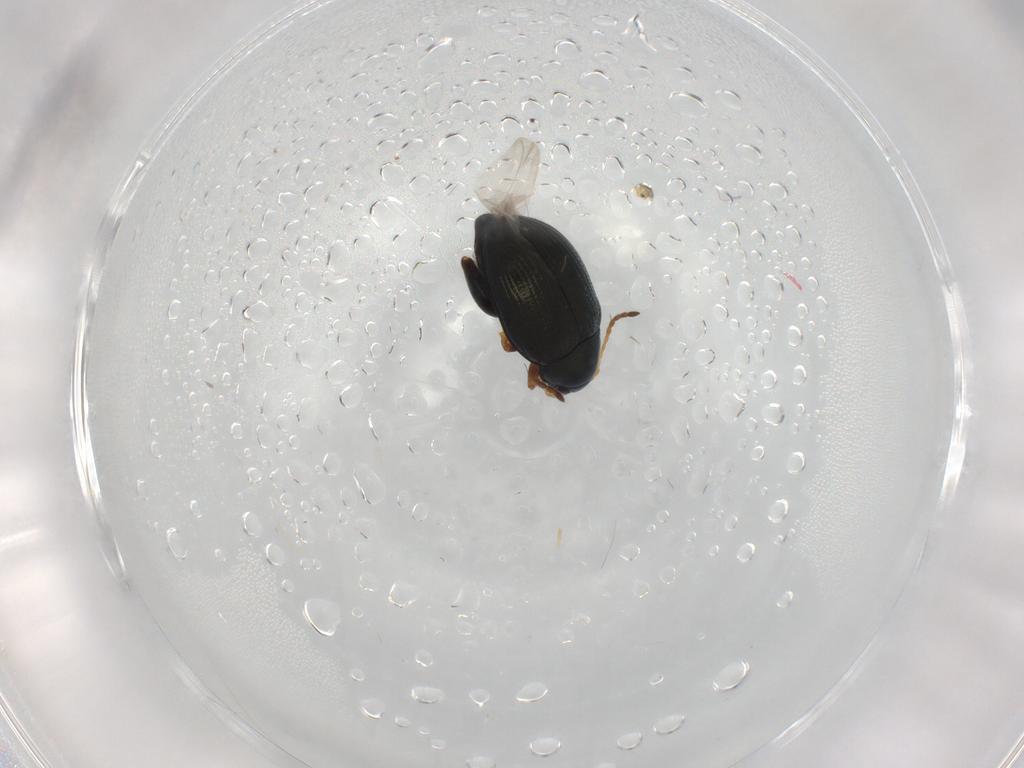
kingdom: Animalia
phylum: Arthropoda
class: Insecta
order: Coleoptera
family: Chrysomelidae
